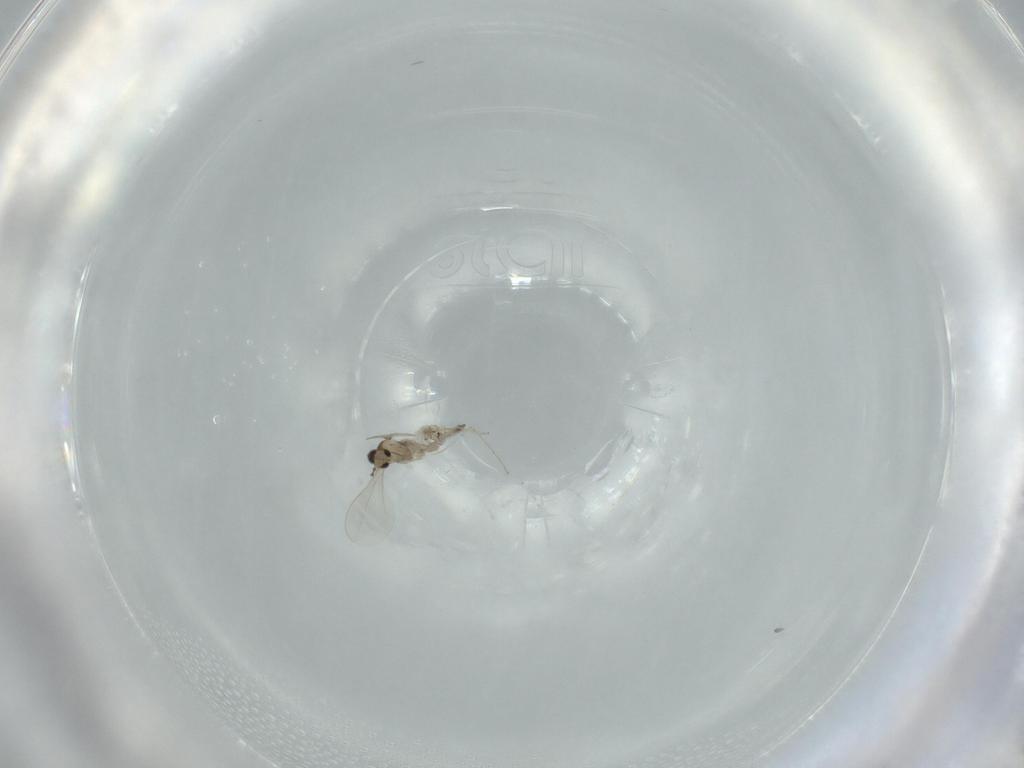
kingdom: Animalia
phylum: Arthropoda
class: Insecta
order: Diptera
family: Cecidomyiidae
